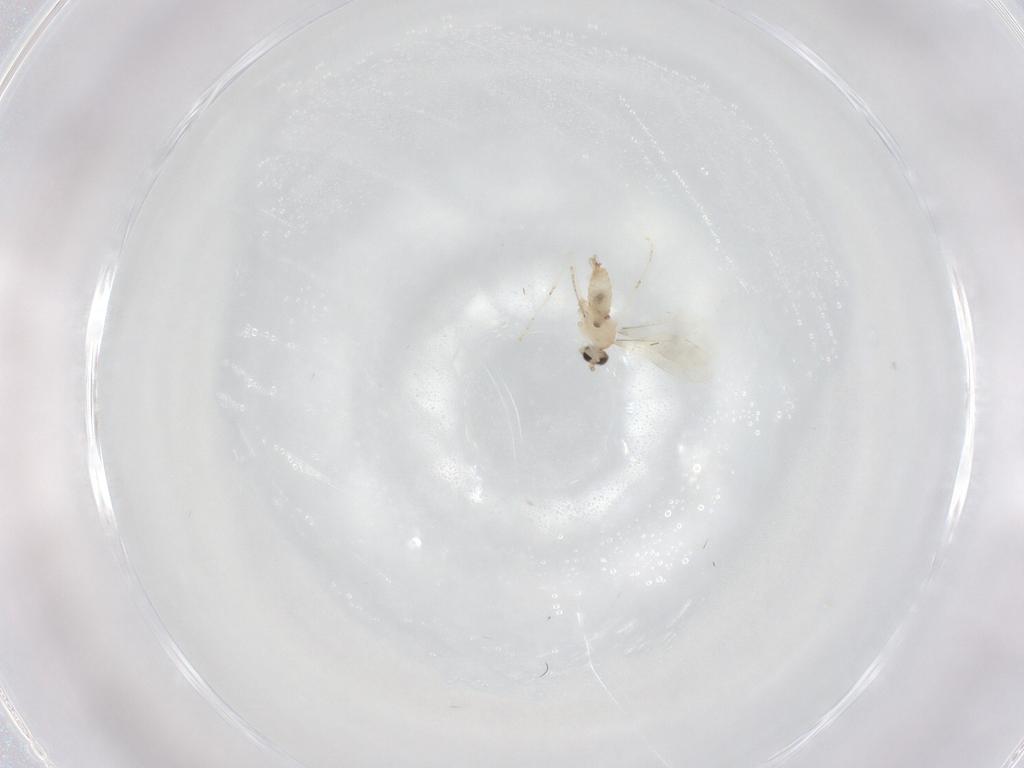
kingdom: Animalia
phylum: Arthropoda
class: Insecta
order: Diptera
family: Cecidomyiidae
